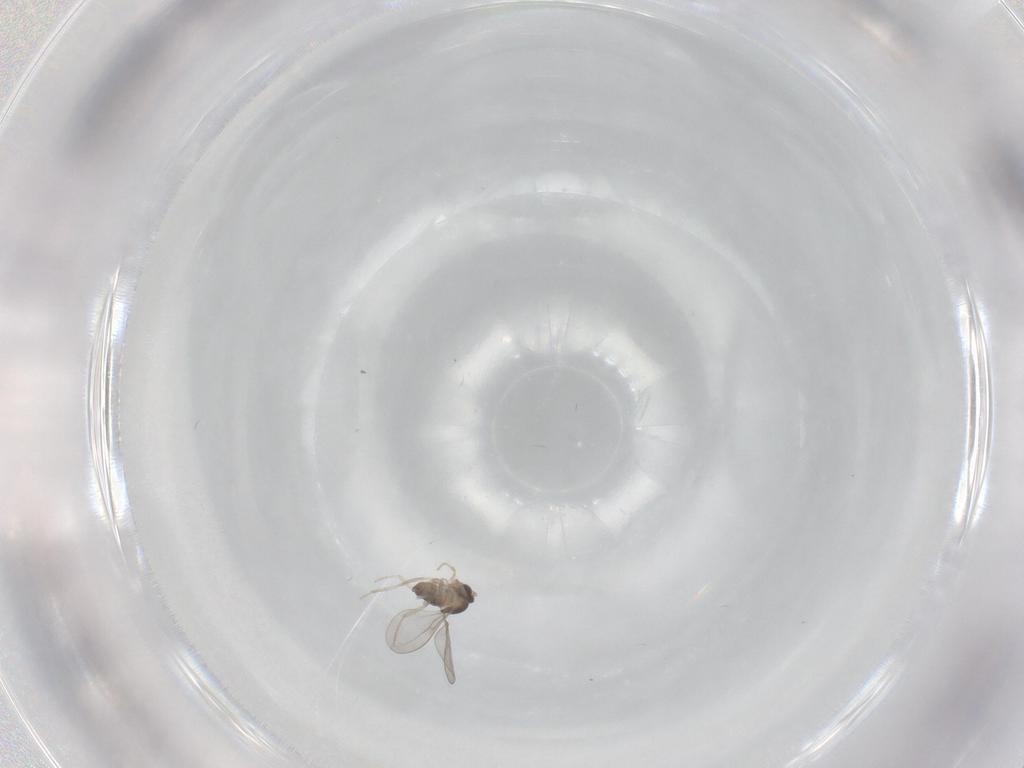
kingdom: Animalia
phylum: Arthropoda
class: Insecta
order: Diptera
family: Cecidomyiidae
